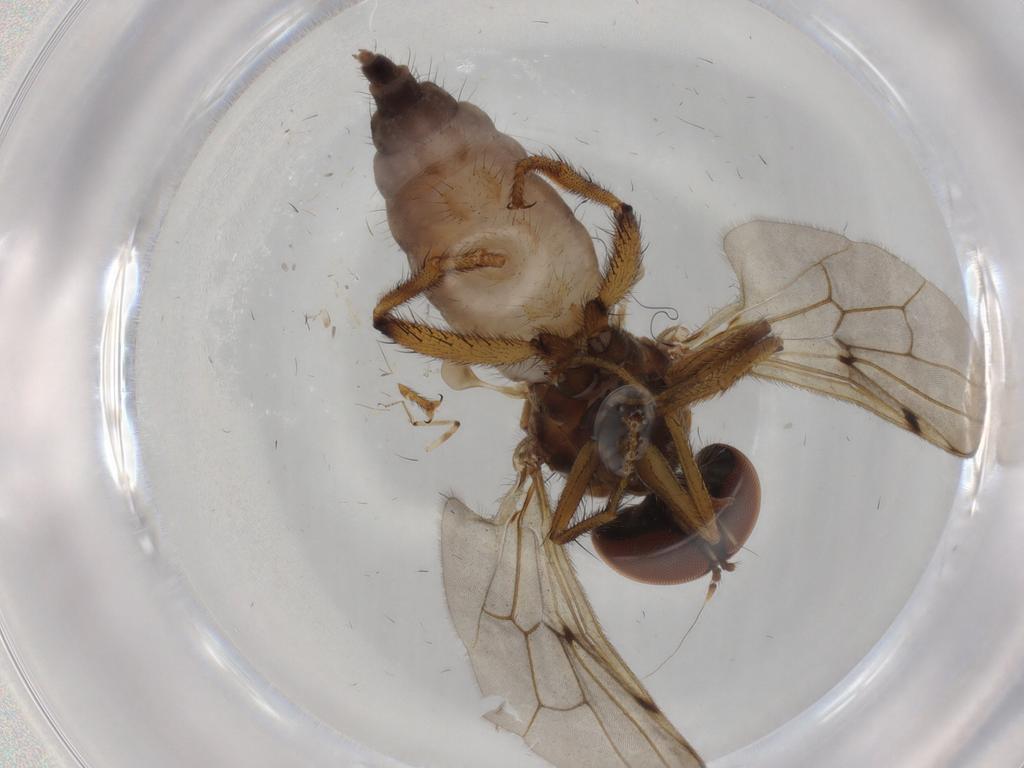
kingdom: Animalia
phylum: Arthropoda
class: Insecta
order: Diptera
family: Hybotidae
